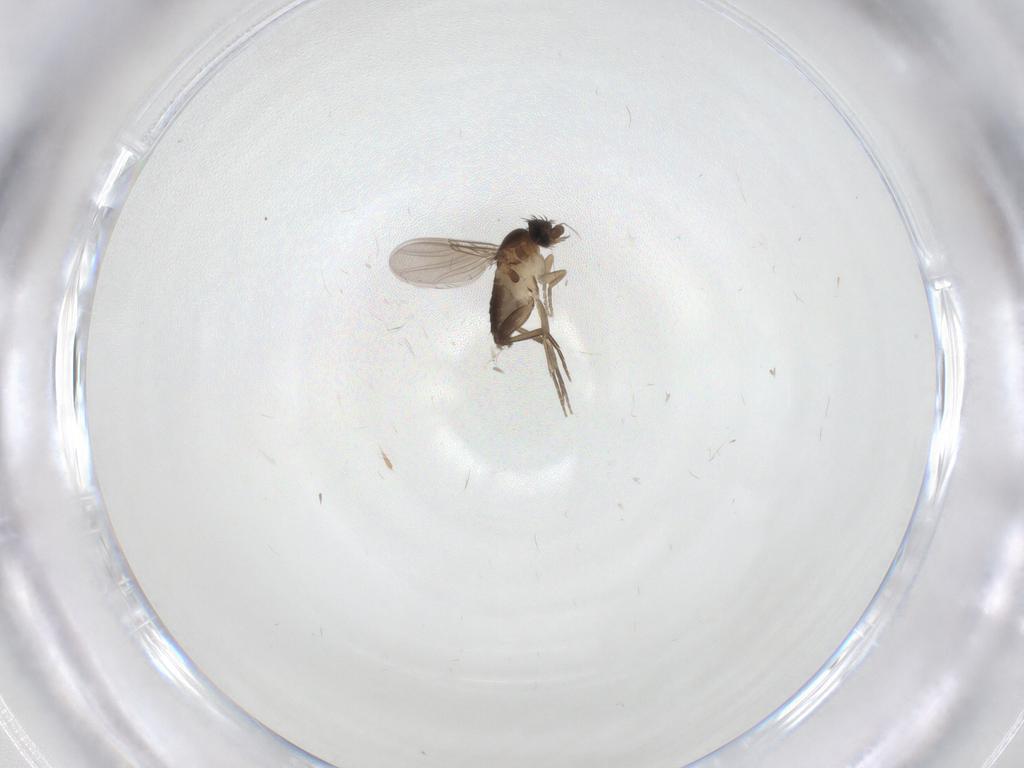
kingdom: Animalia
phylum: Arthropoda
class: Insecta
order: Diptera
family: Phoridae
